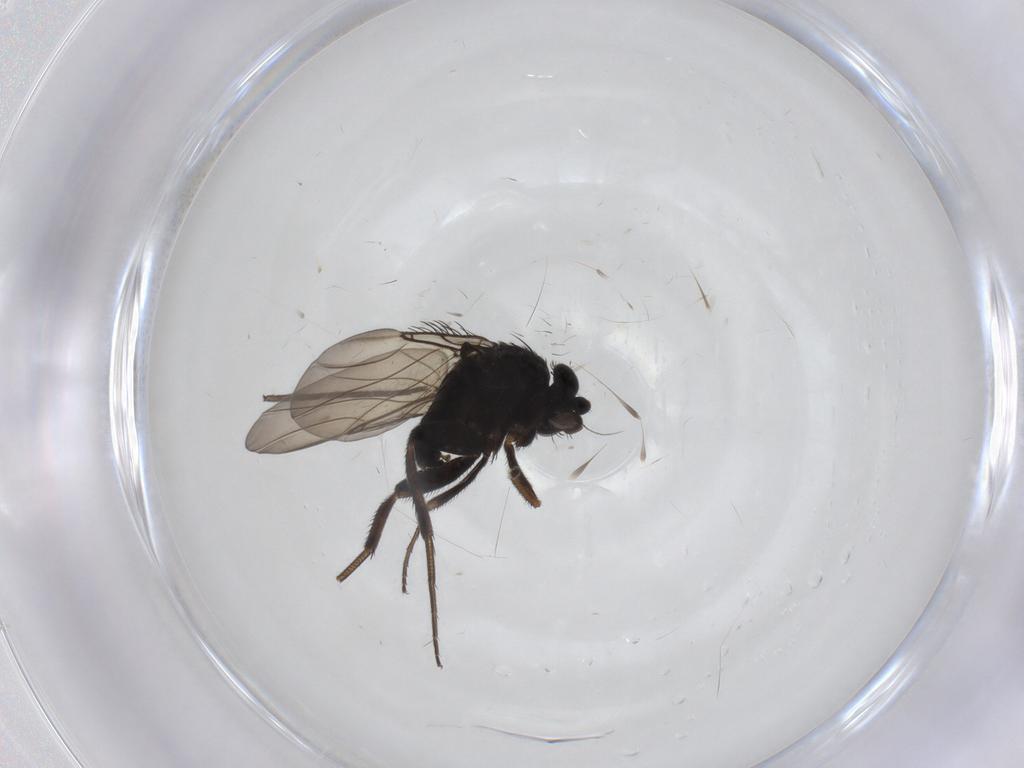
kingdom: Animalia
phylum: Arthropoda
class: Insecta
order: Diptera
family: Phoridae
